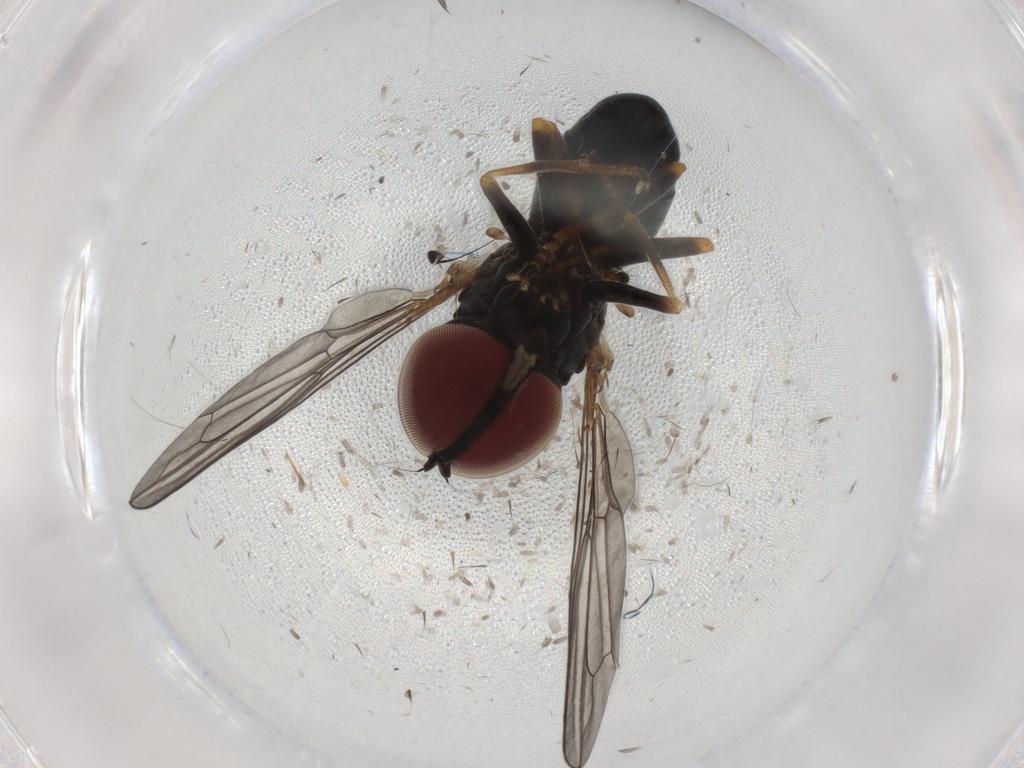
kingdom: Animalia
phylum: Arthropoda
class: Insecta
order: Diptera
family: Pipunculidae
